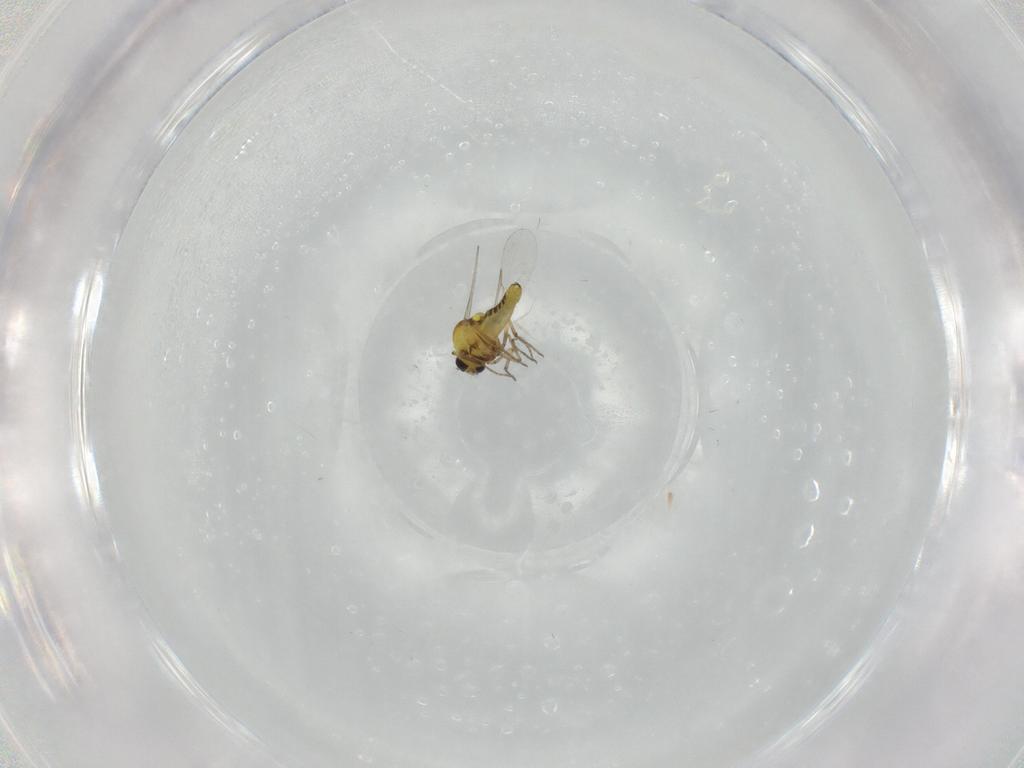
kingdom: Animalia
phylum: Arthropoda
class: Insecta
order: Diptera
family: Ceratopogonidae
